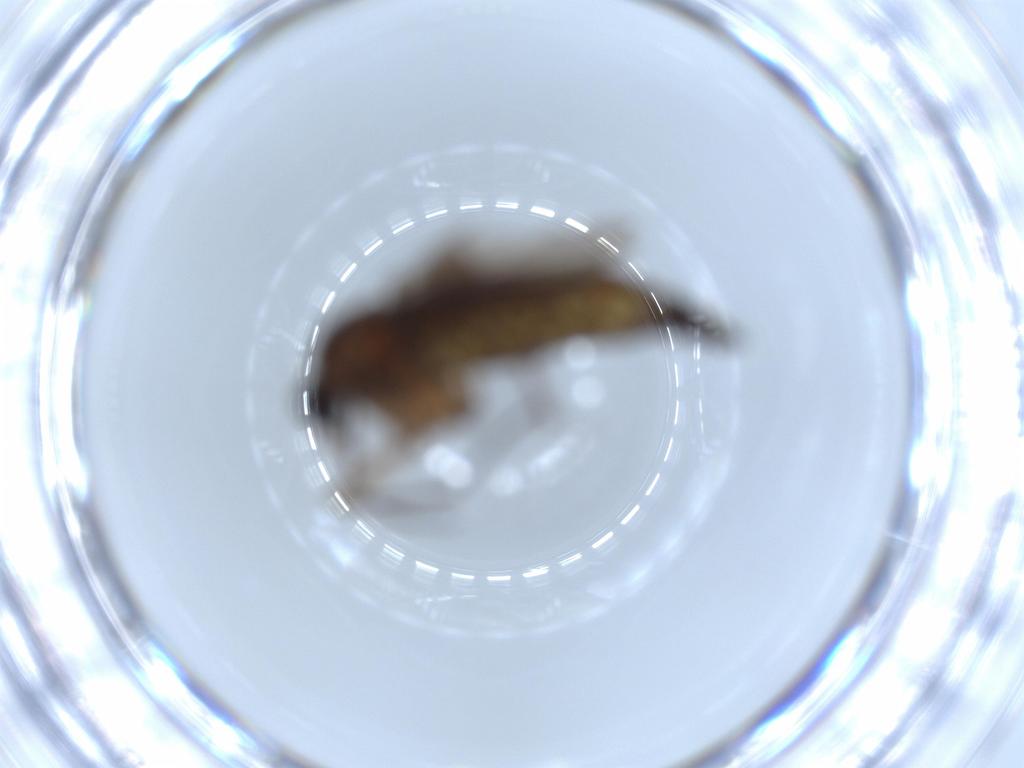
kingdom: Animalia
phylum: Arthropoda
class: Insecta
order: Diptera
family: Sciaridae
